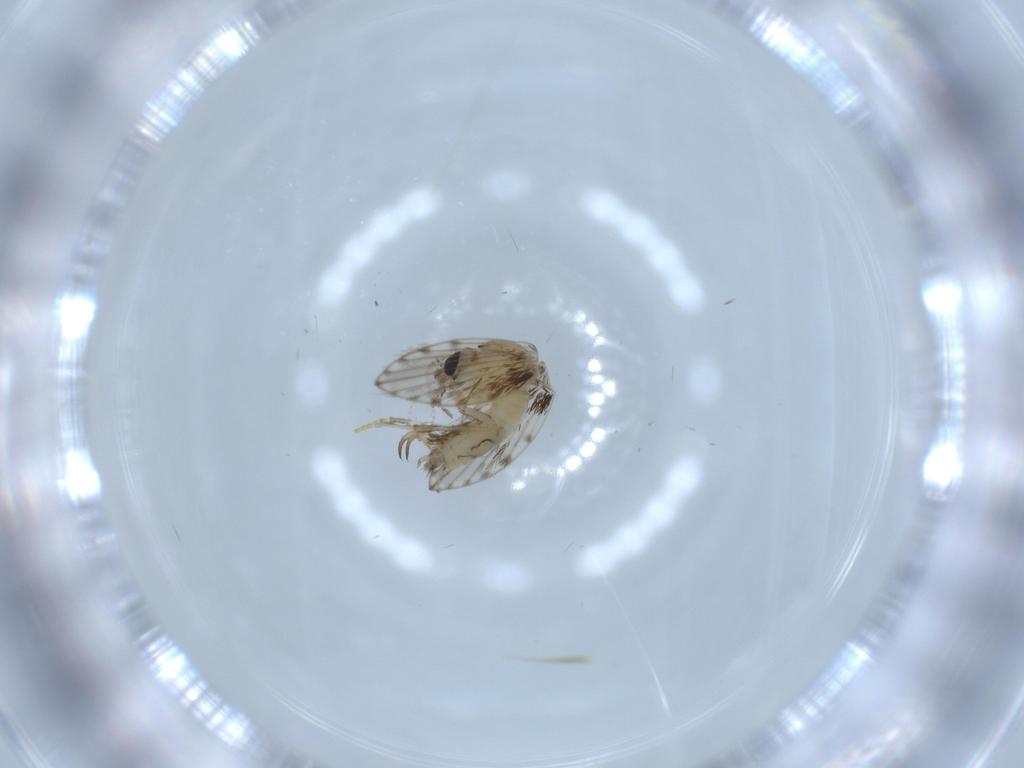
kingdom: Animalia
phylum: Arthropoda
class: Insecta
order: Diptera
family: Psychodidae
